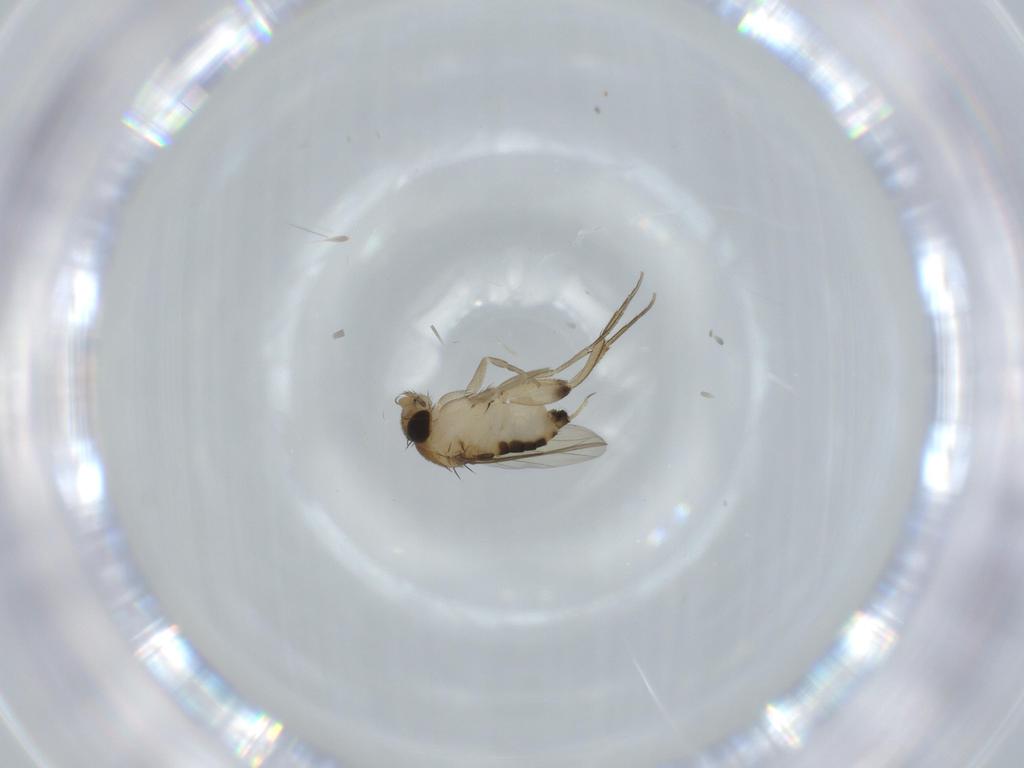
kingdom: Animalia
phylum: Arthropoda
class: Insecta
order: Diptera
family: Phoridae
